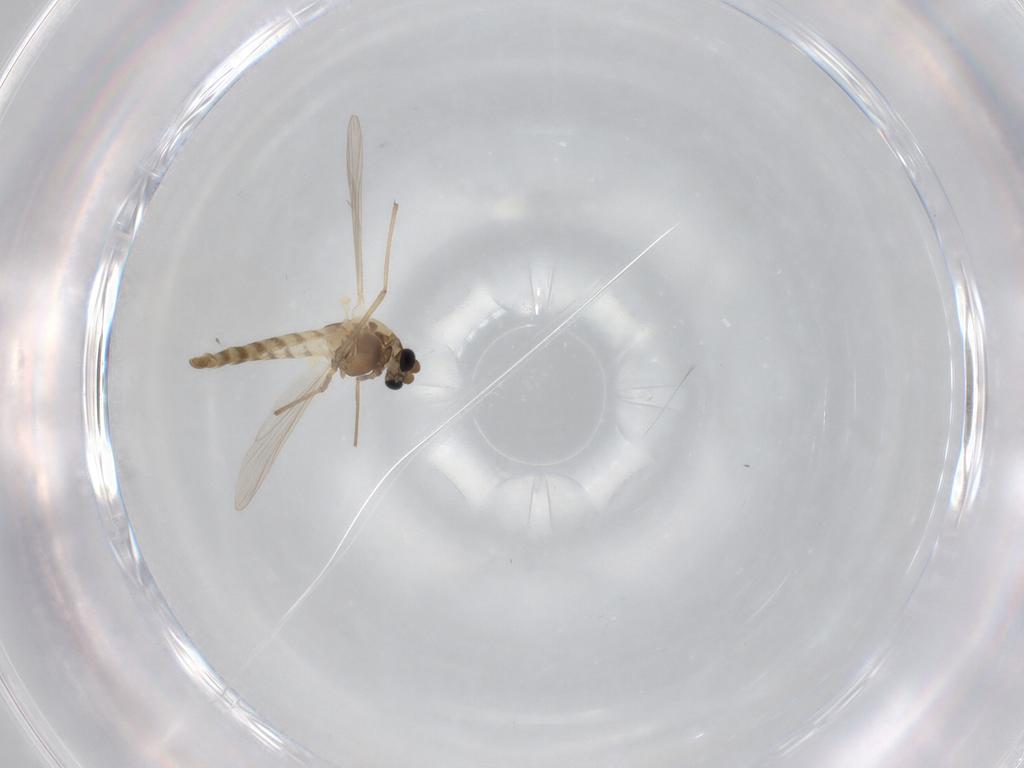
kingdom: Animalia
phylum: Arthropoda
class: Insecta
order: Diptera
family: Chironomidae
